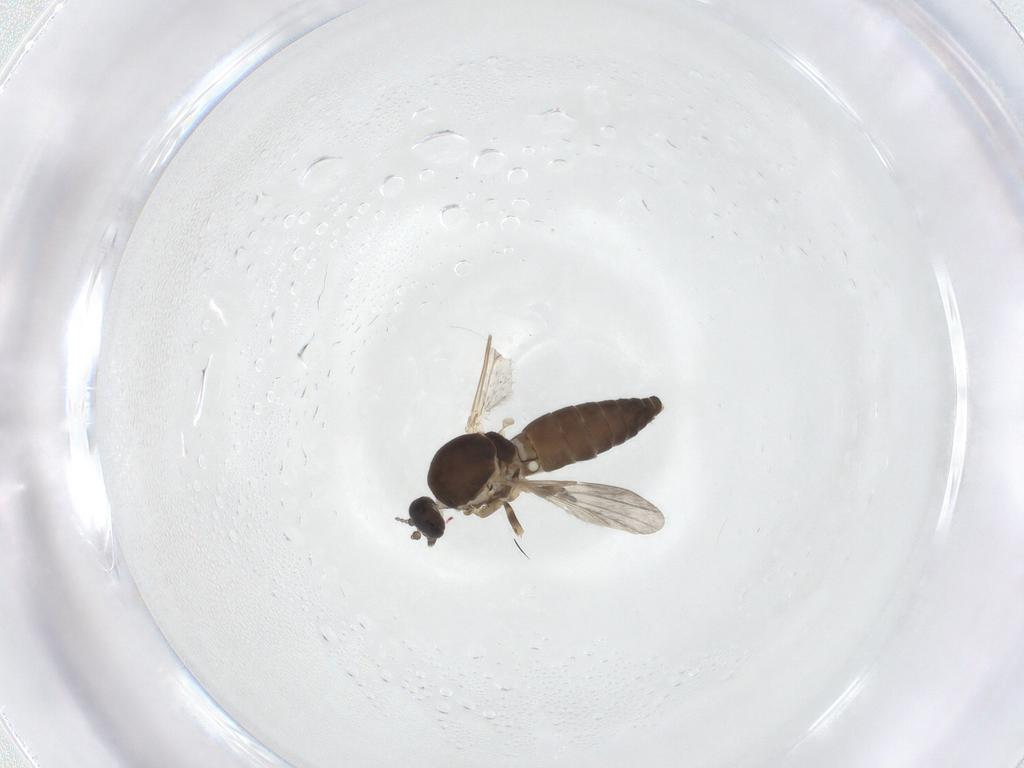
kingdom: Animalia
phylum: Arthropoda
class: Insecta
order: Diptera
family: Ceratopogonidae
